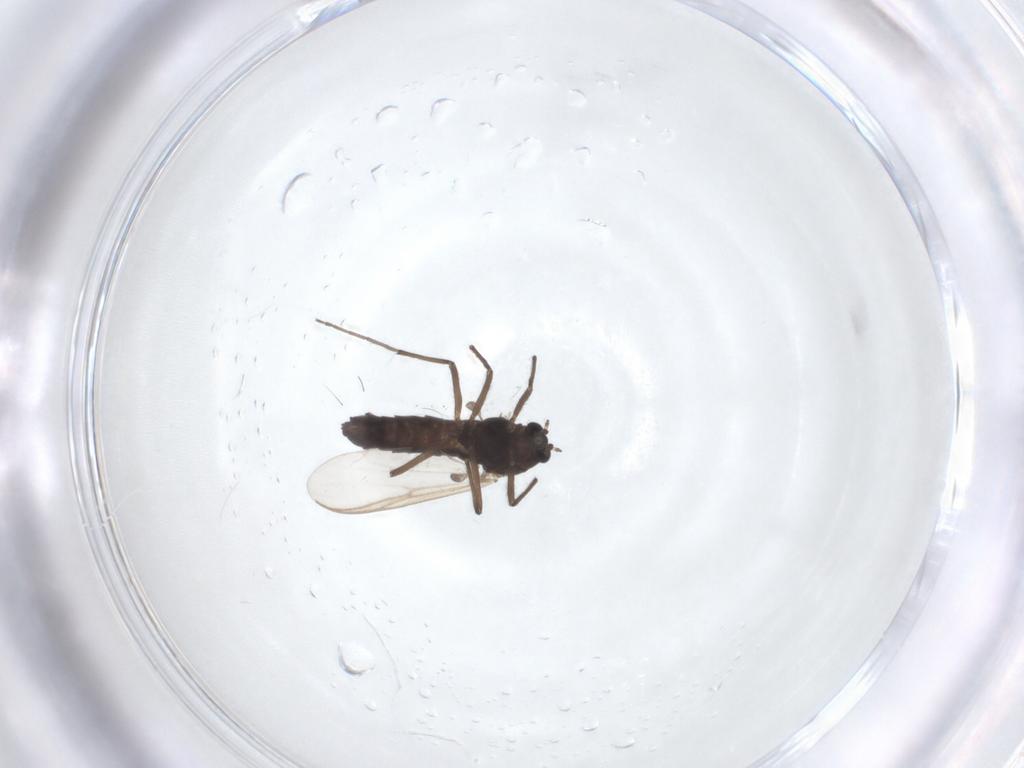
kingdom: Animalia
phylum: Arthropoda
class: Insecta
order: Diptera
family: Chironomidae
